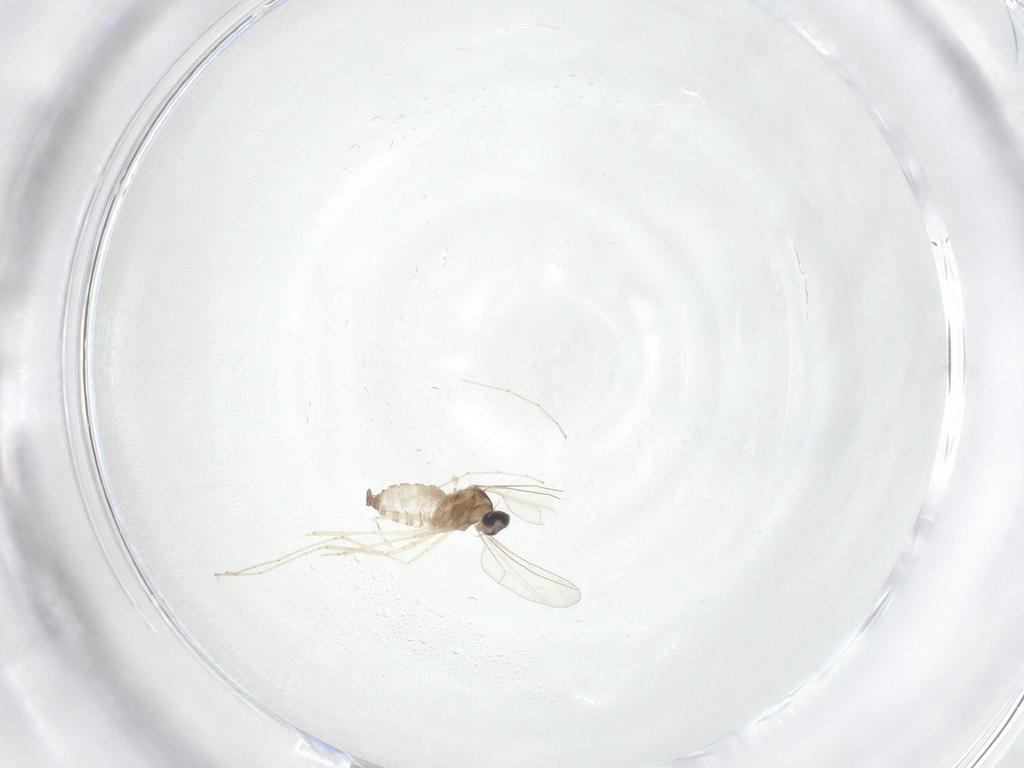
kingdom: Animalia
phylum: Arthropoda
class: Insecta
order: Diptera
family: Cecidomyiidae
